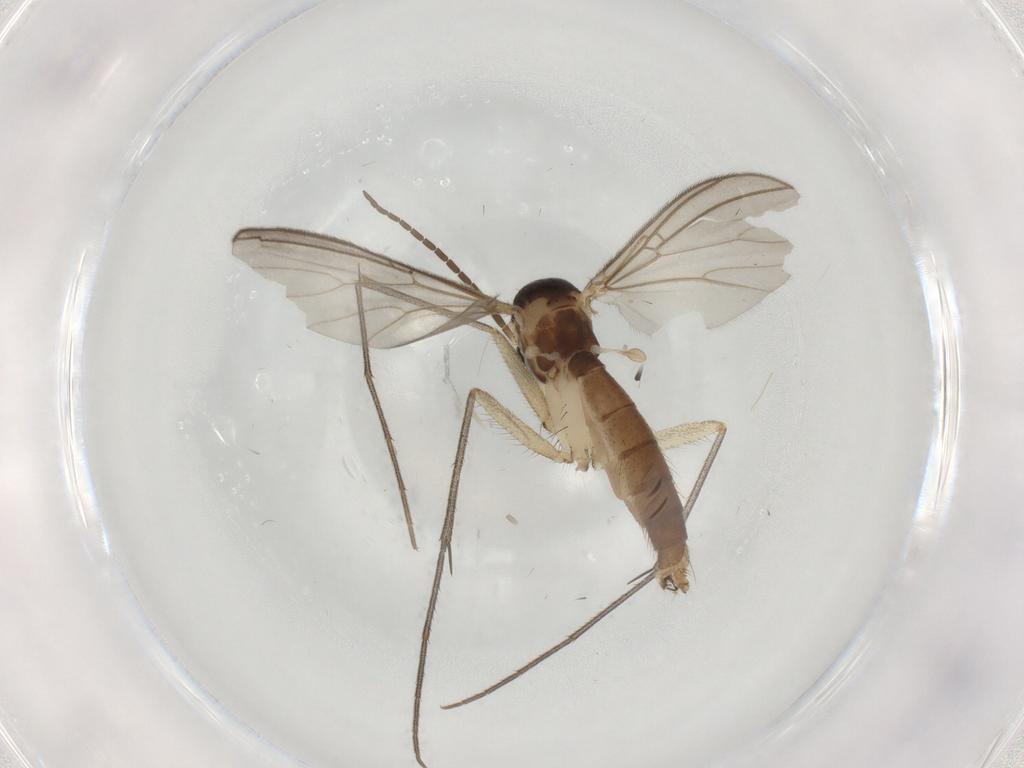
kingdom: Animalia
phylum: Arthropoda
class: Insecta
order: Diptera
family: Mycetophilidae
